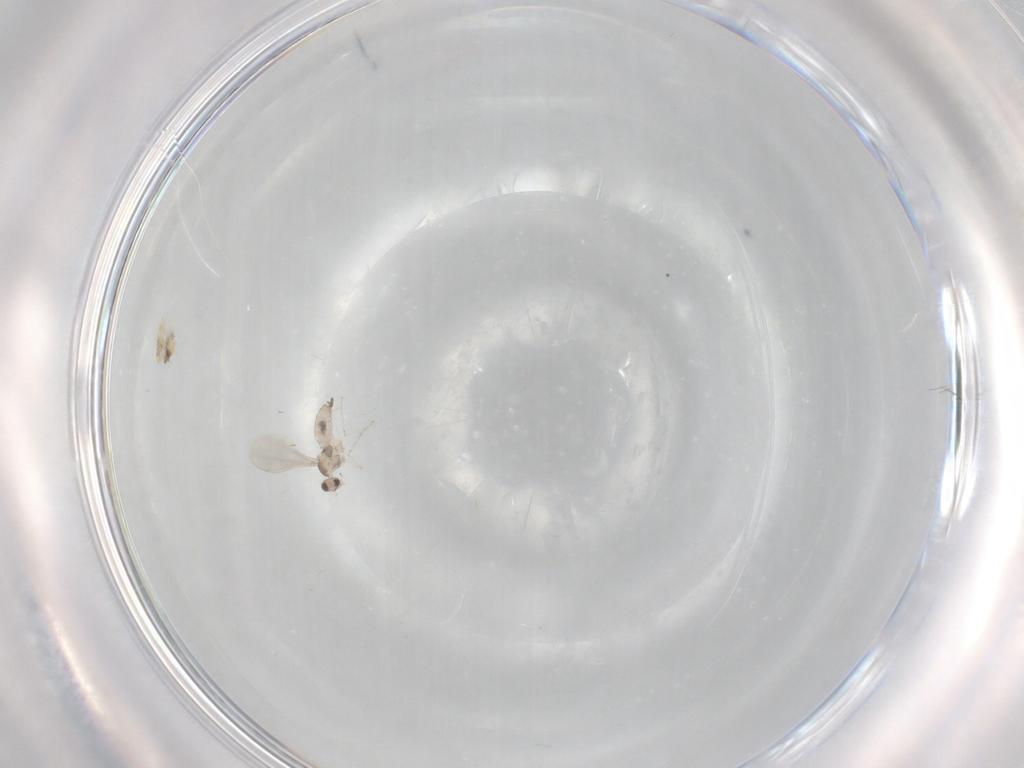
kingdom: Animalia
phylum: Arthropoda
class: Insecta
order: Diptera
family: Cecidomyiidae
